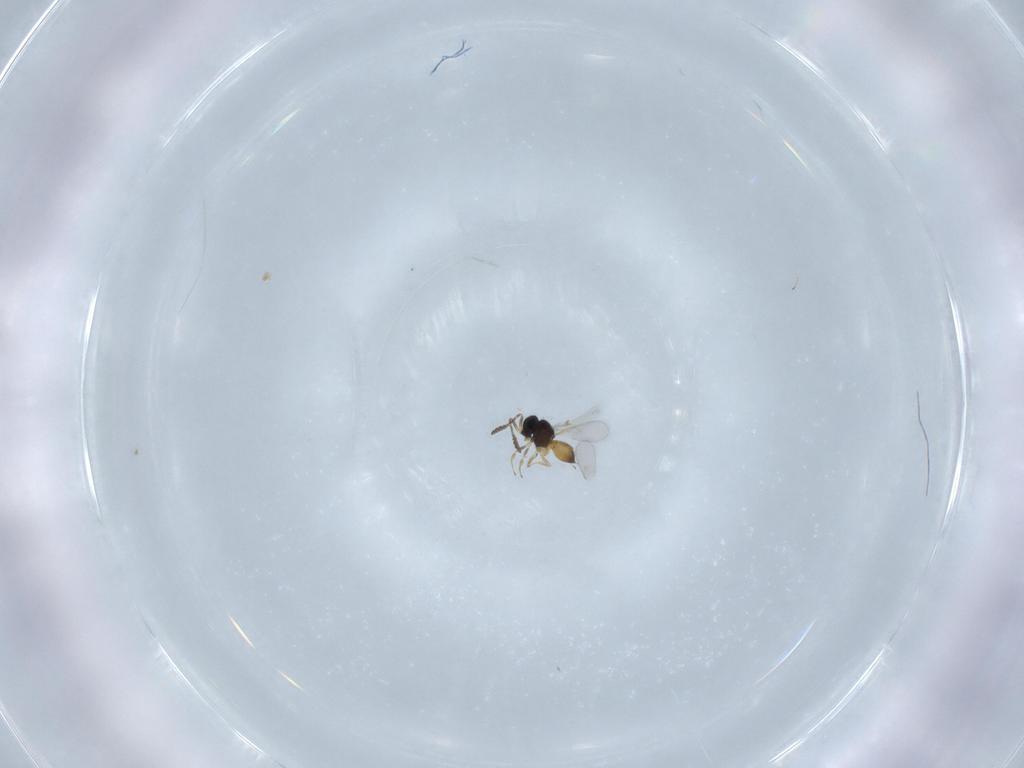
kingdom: Animalia
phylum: Arthropoda
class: Insecta
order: Hymenoptera
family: Scelionidae
